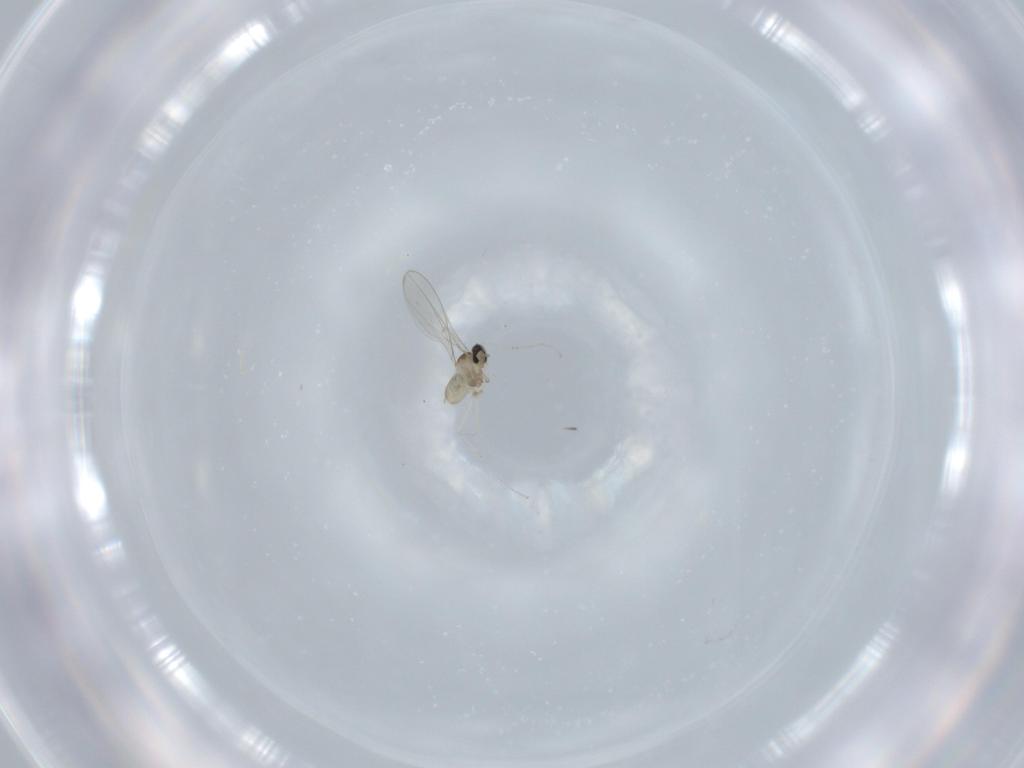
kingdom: Animalia
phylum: Arthropoda
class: Insecta
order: Diptera
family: Cecidomyiidae
